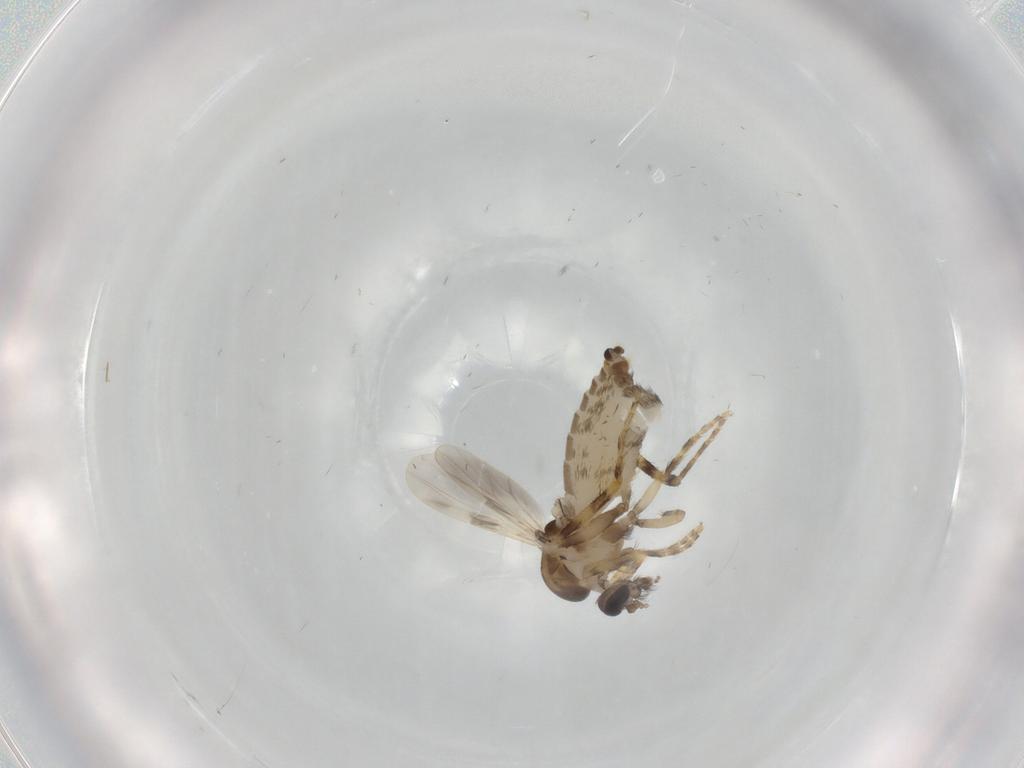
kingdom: Animalia
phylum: Arthropoda
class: Insecta
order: Diptera
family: Ceratopogonidae
